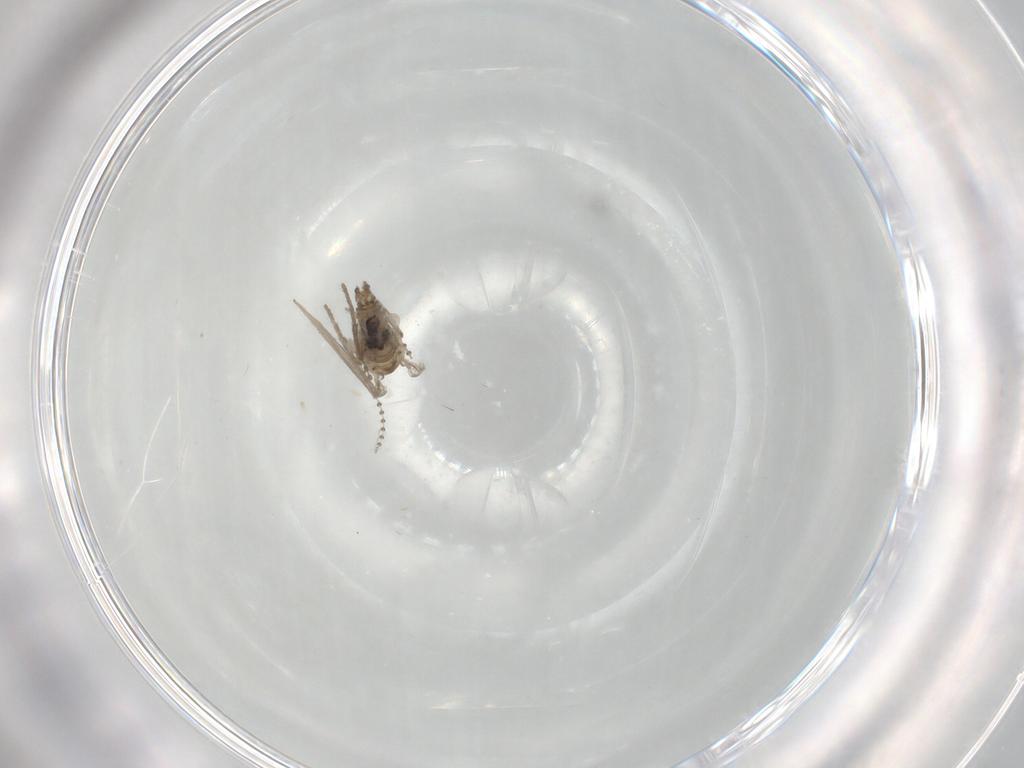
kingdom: Animalia
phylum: Arthropoda
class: Insecta
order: Diptera
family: Psychodidae
